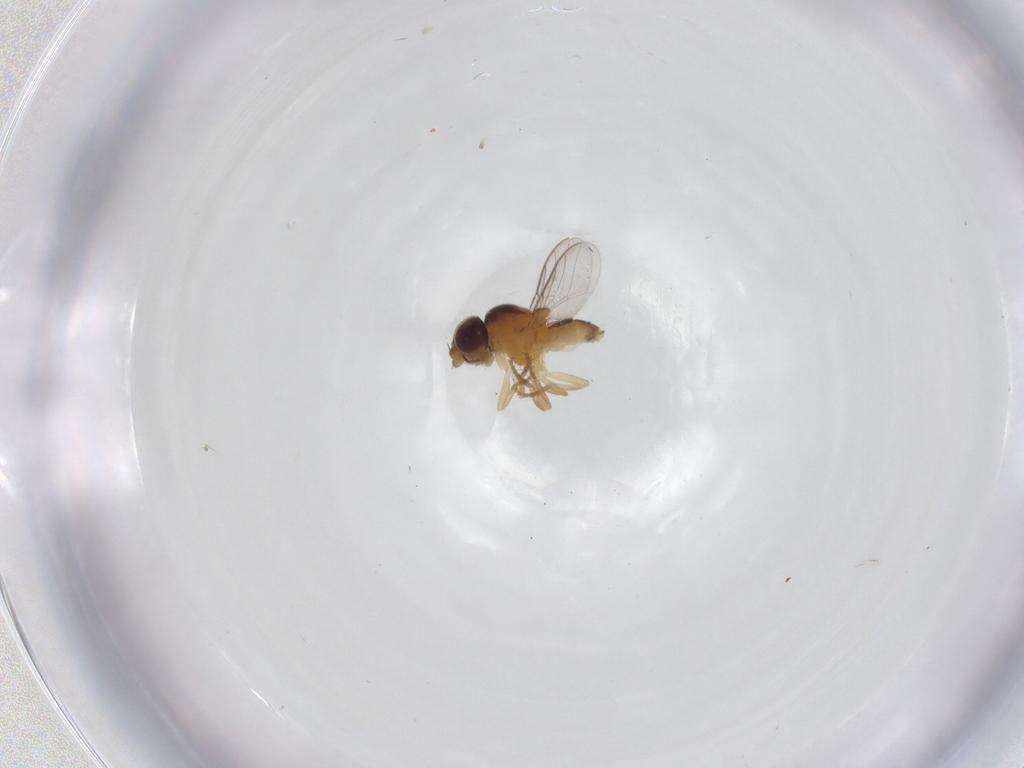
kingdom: Animalia
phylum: Arthropoda
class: Insecta
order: Diptera
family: Chloropidae
